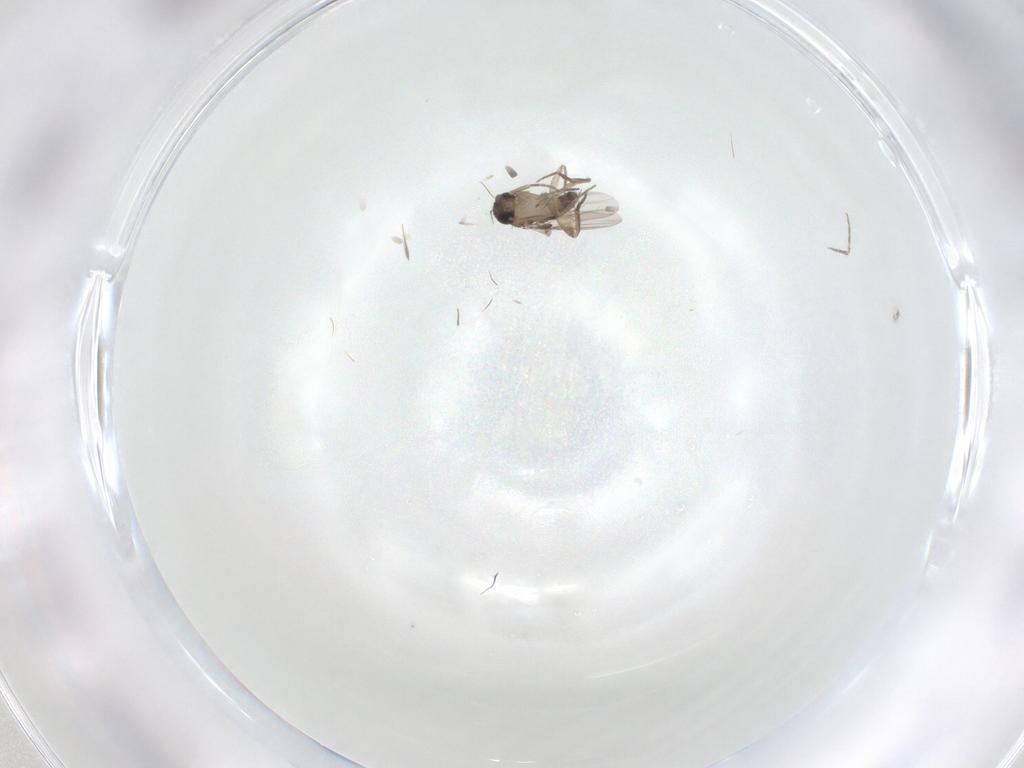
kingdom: Animalia
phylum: Arthropoda
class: Insecta
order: Diptera
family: Phoridae
